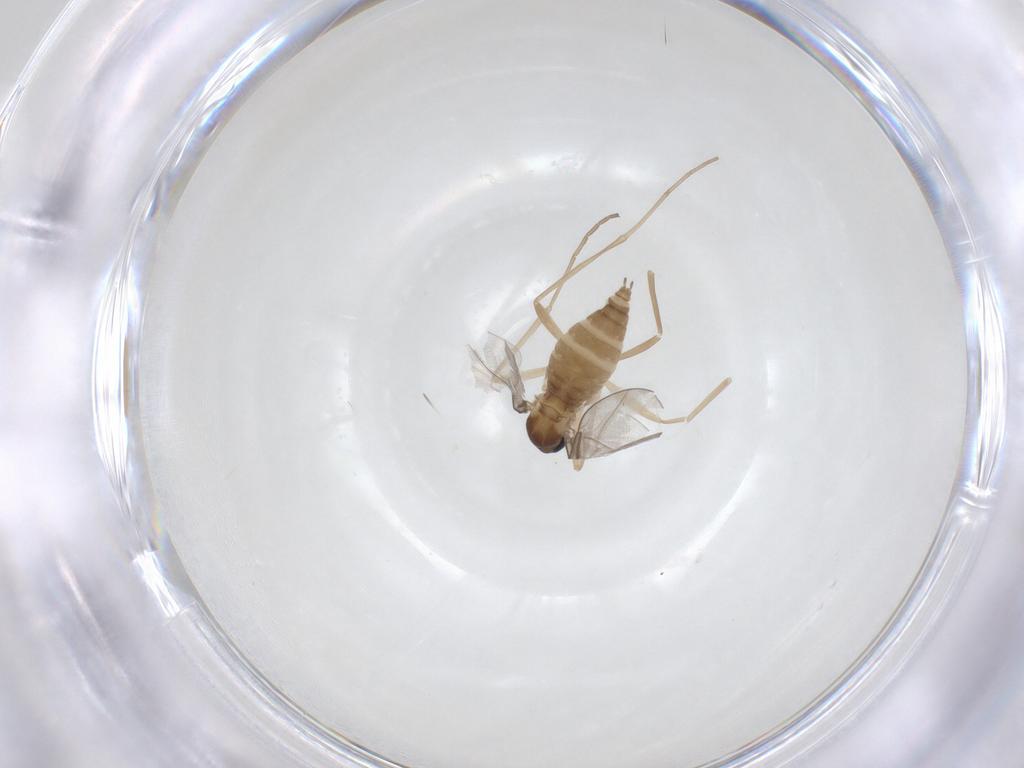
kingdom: Animalia
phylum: Arthropoda
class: Insecta
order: Diptera
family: Cecidomyiidae
